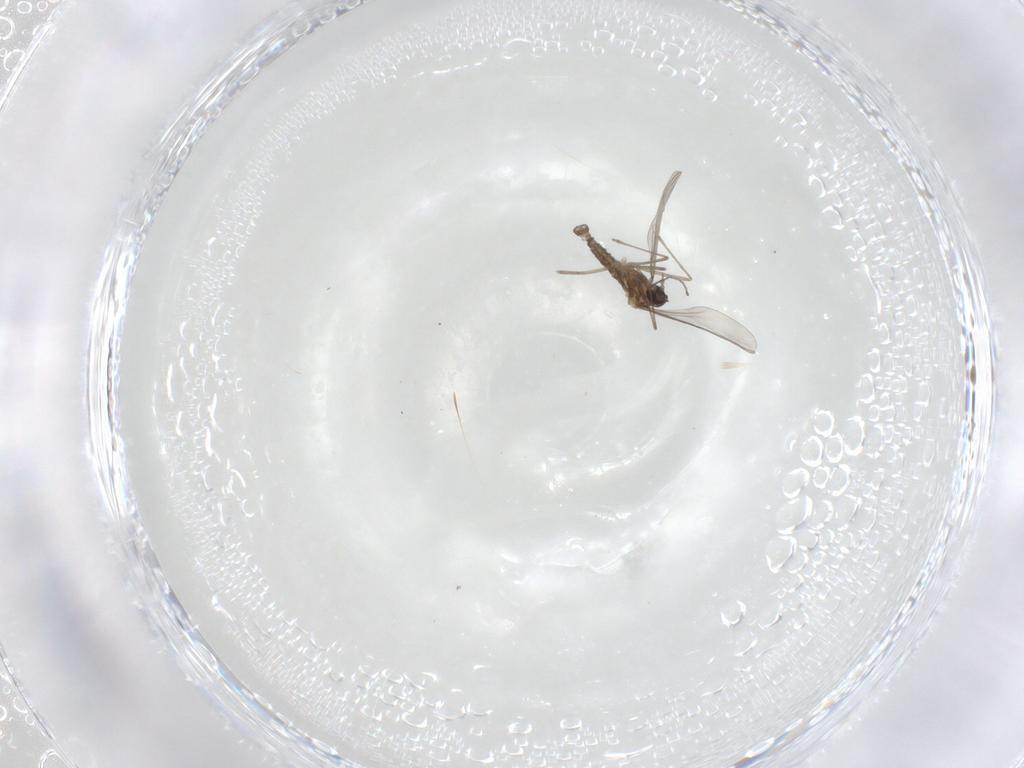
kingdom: Animalia
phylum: Arthropoda
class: Insecta
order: Diptera
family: Cecidomyiidae
